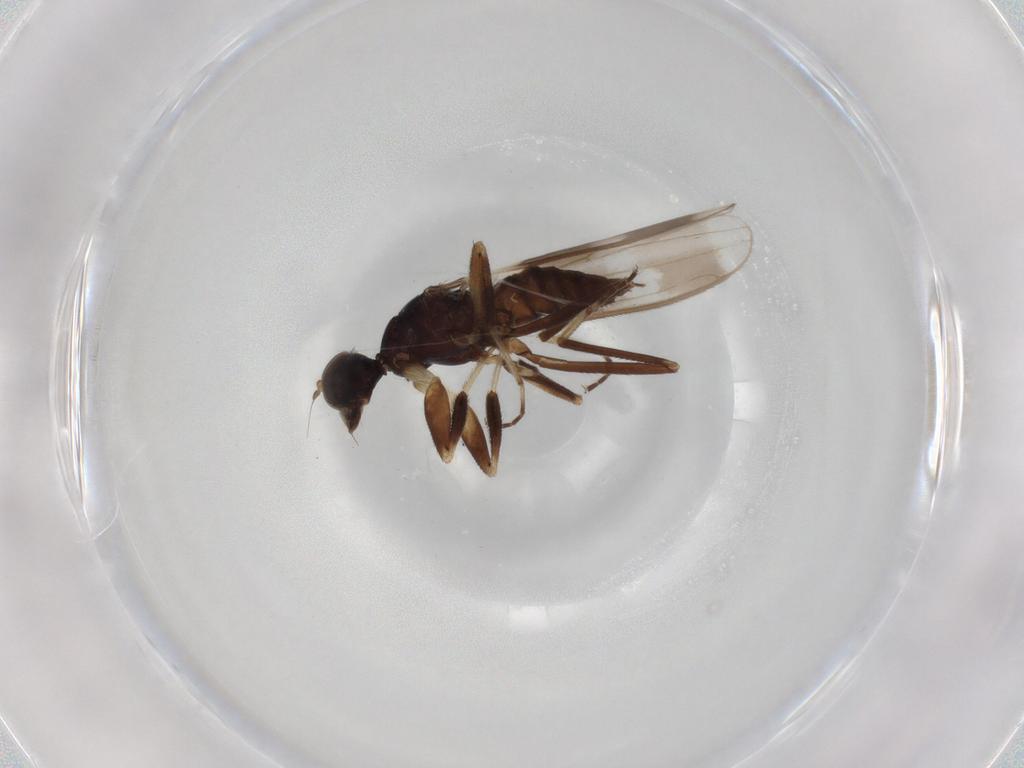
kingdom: Animalia
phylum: Arthropoda
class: Insecta
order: Diptera
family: Hybotidae
